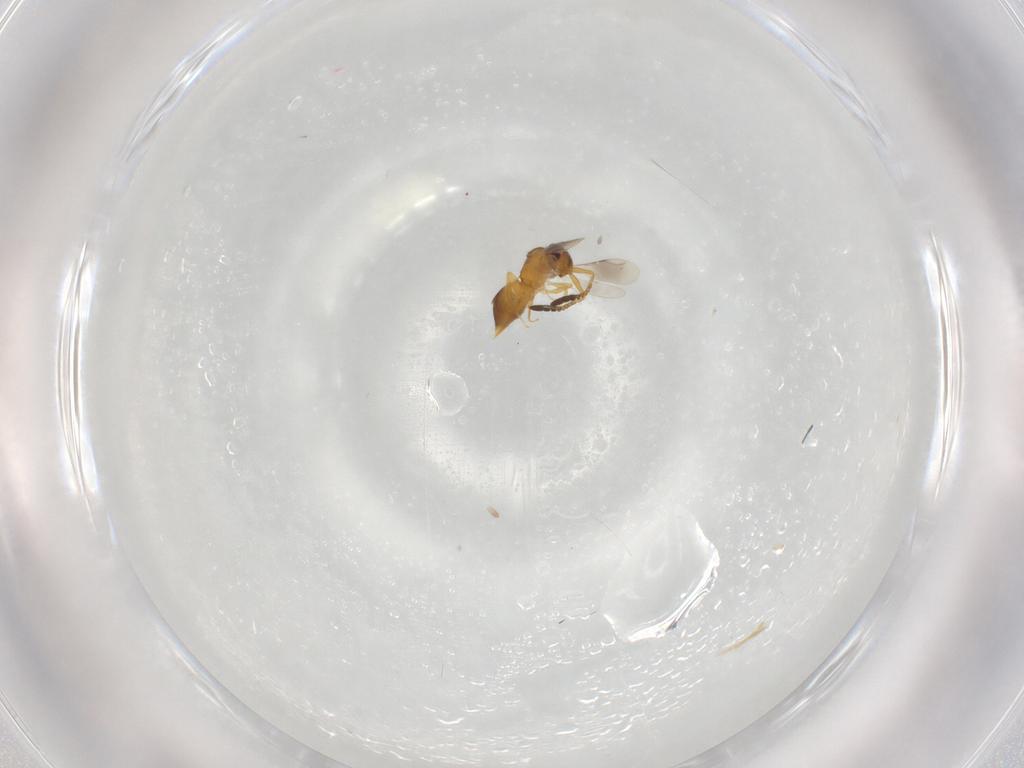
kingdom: Animalia
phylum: Arthropoda
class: Insecta
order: Hymenoptera
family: Ceraphronidae
